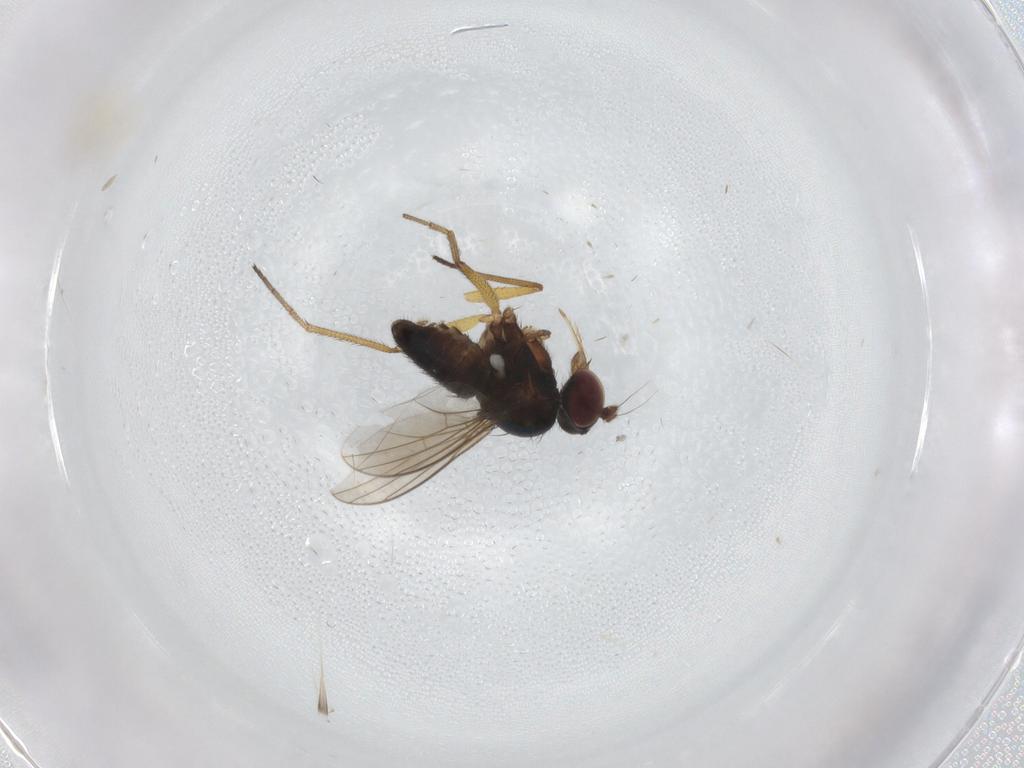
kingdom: Animalia
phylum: Arthropoda
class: Insecta
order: Diptera
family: Dolichopodidae
